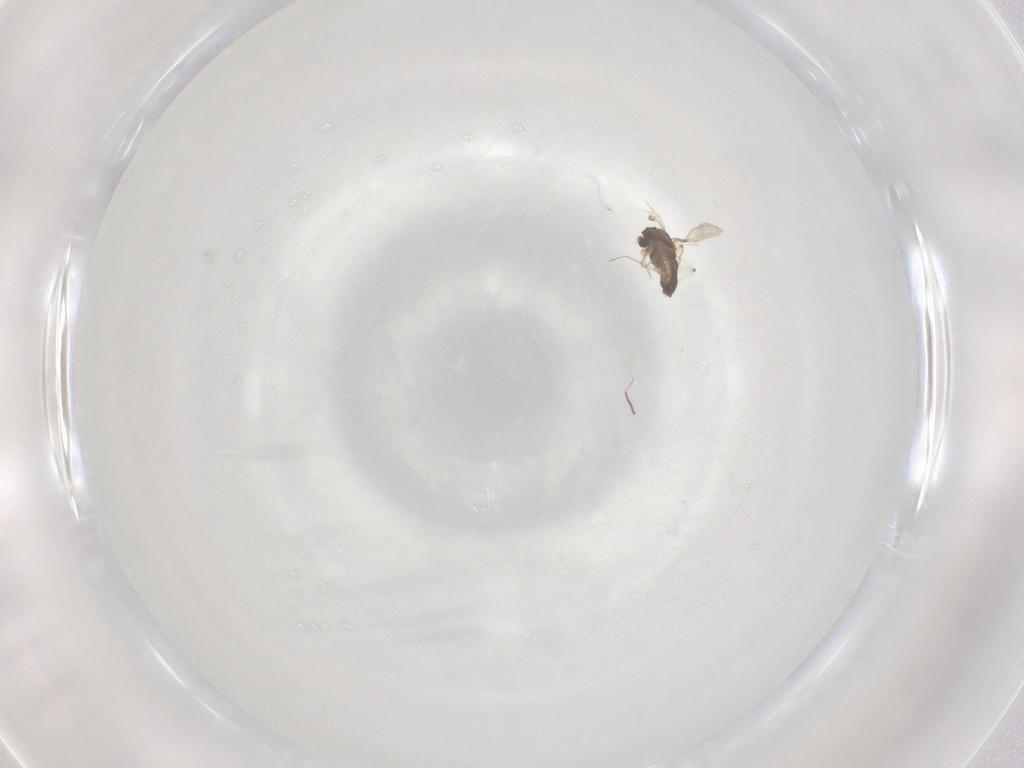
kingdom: Animalia
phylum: Arthropoda
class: Insecta
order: Diptera
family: Chironomidae
